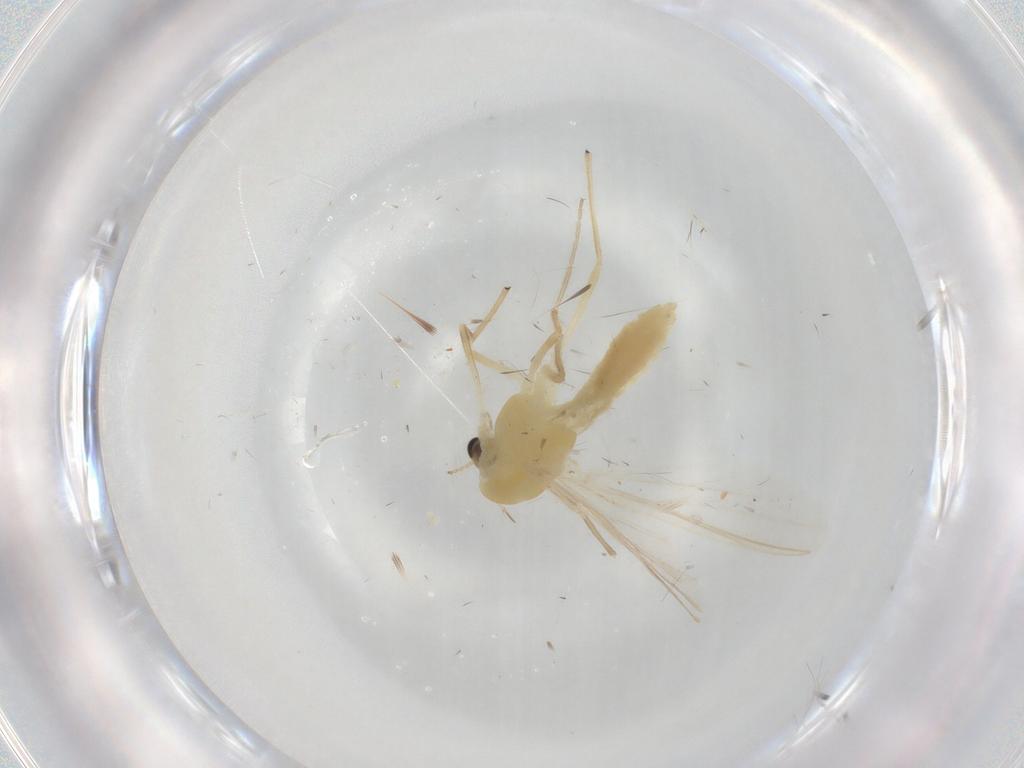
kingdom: Animalia
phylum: Arthropoda
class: Insecta
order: Diptera
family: Chironomidae
